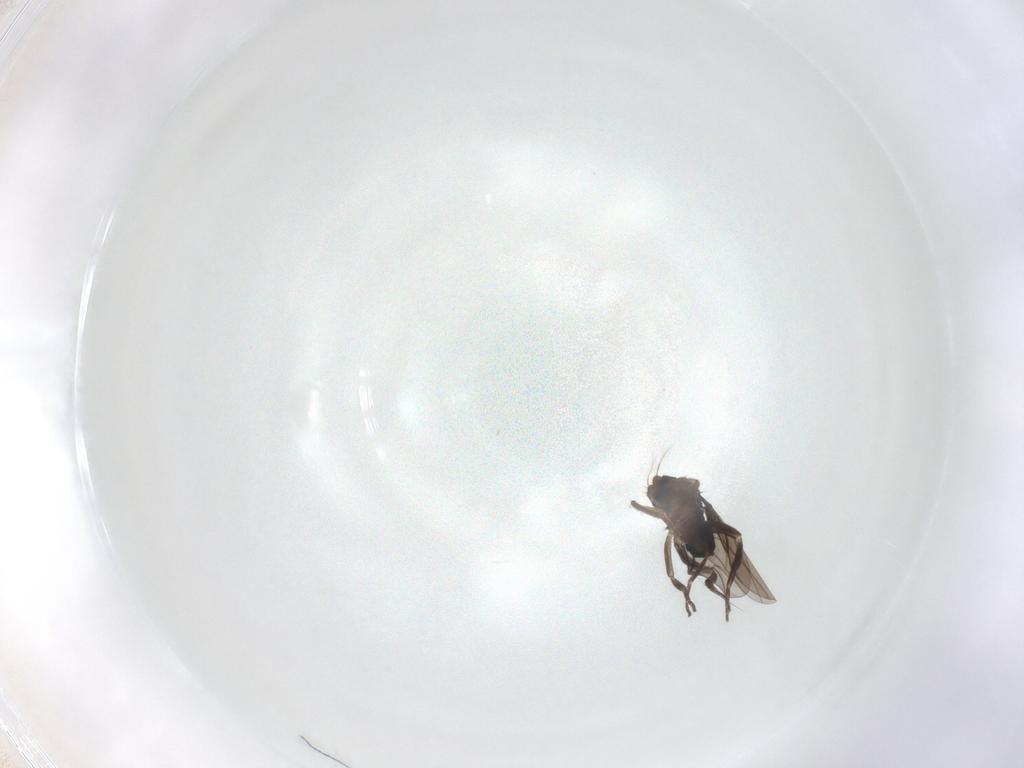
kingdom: Animalia
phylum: Arthropoda
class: Insecta
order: Diptera
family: Phoridae
